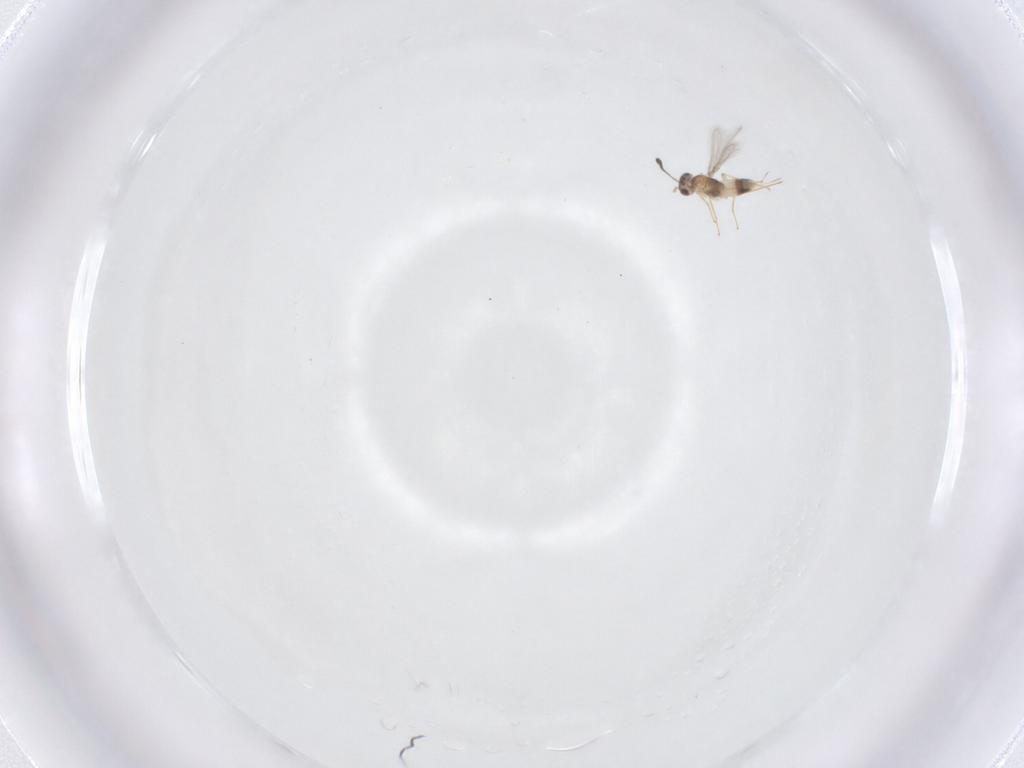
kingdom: Animalia
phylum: Arthropoda
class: Insecta
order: Hymenoptera
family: Mymaridae
